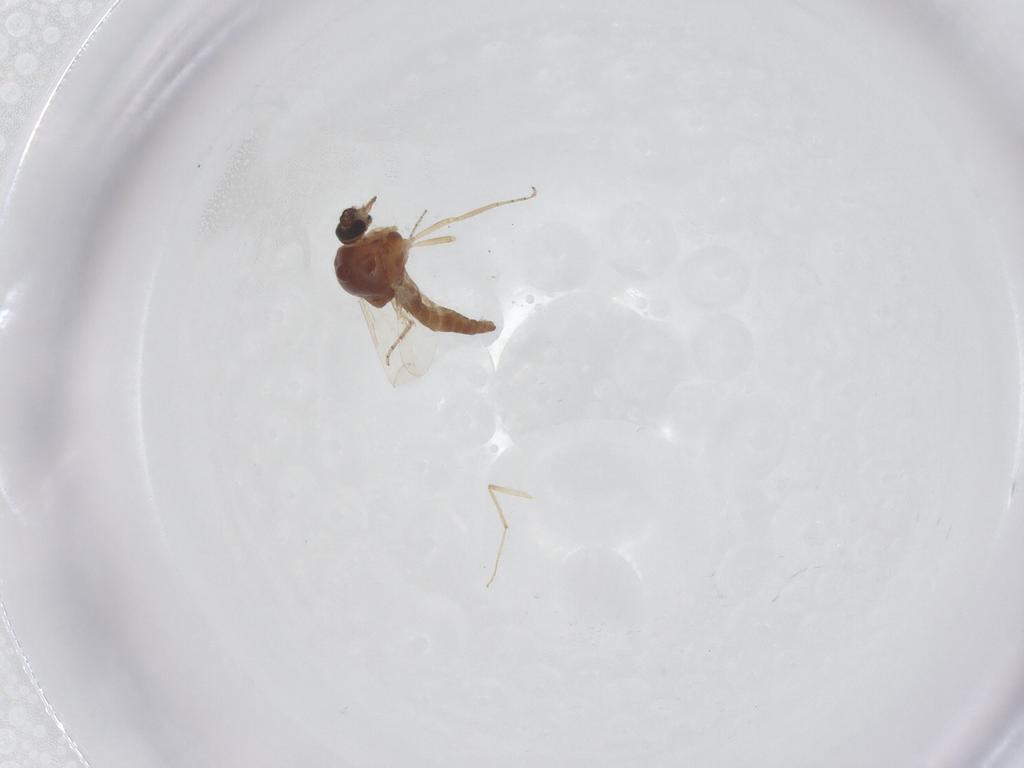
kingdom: Animalia
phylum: Arthropoda
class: Insecta
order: Diptera
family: Ceratopogonidae
